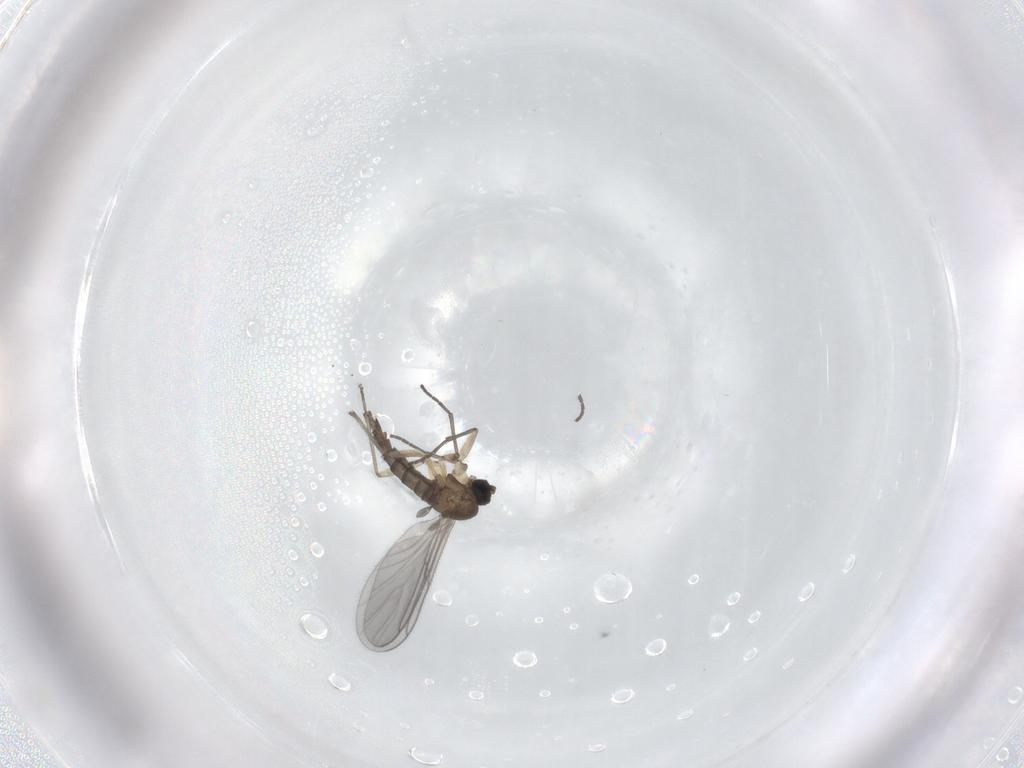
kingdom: Animalia
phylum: Arthropoda
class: Insecta
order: Diptera
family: Sciaridae
